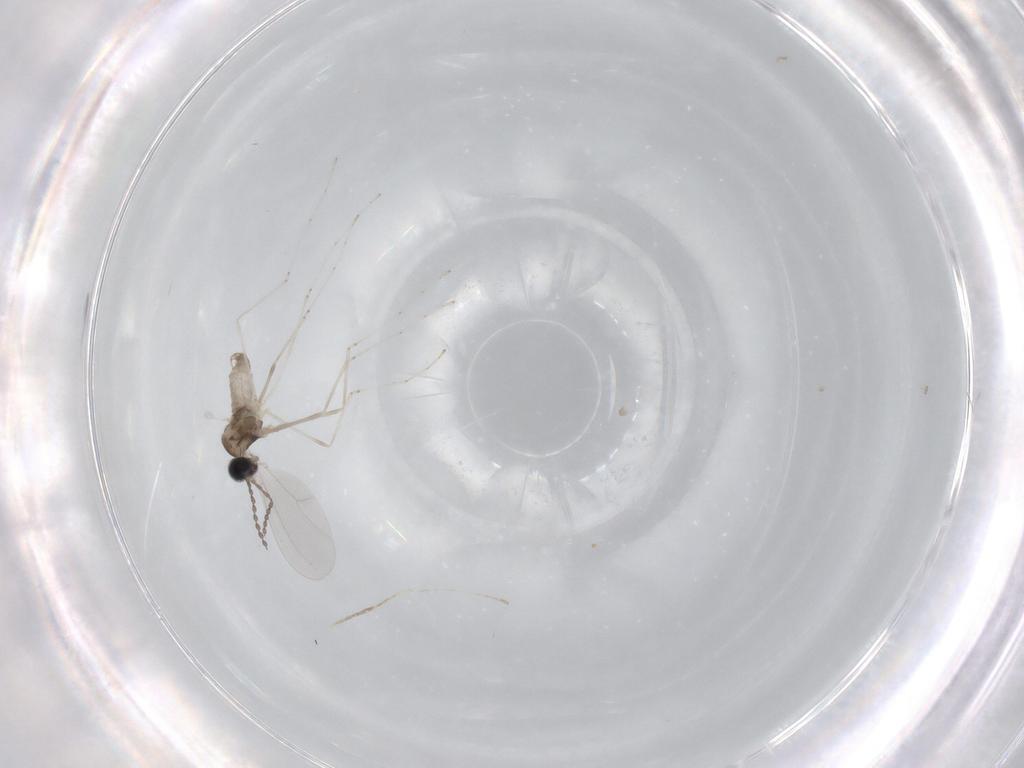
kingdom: Animalia
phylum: Arthropoda
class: Insecta
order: Diptera
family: Cecidomyiidae
